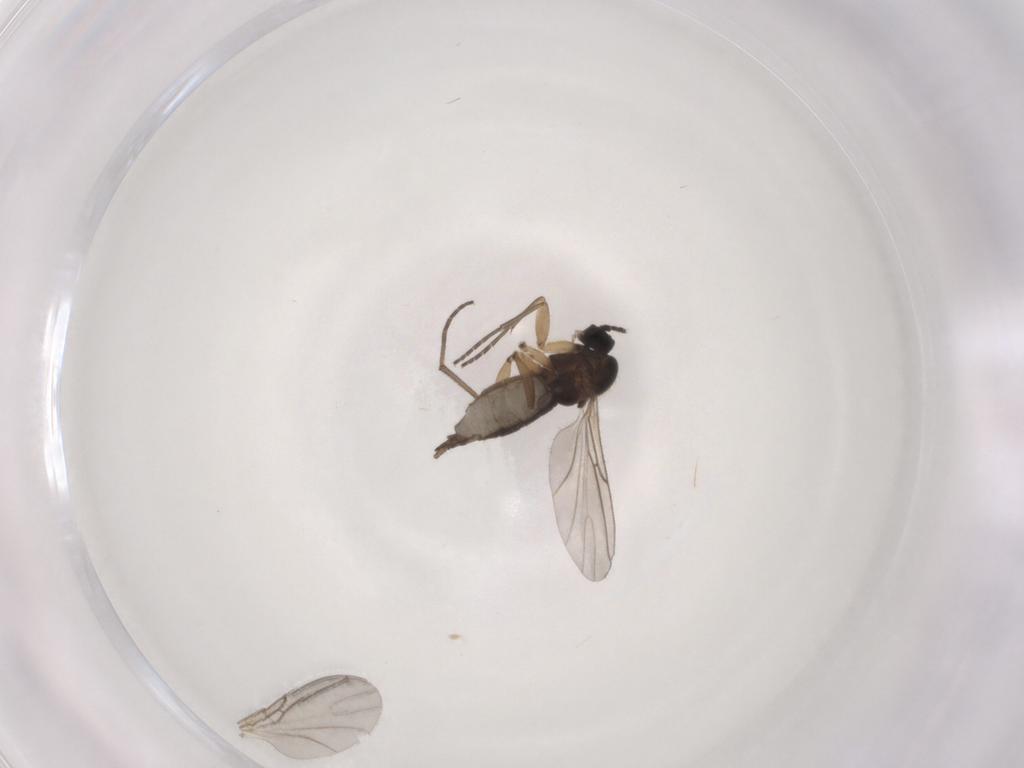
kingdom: Animalia
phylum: Arthropoda
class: Insecta
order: Diptera
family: Sciaridae
